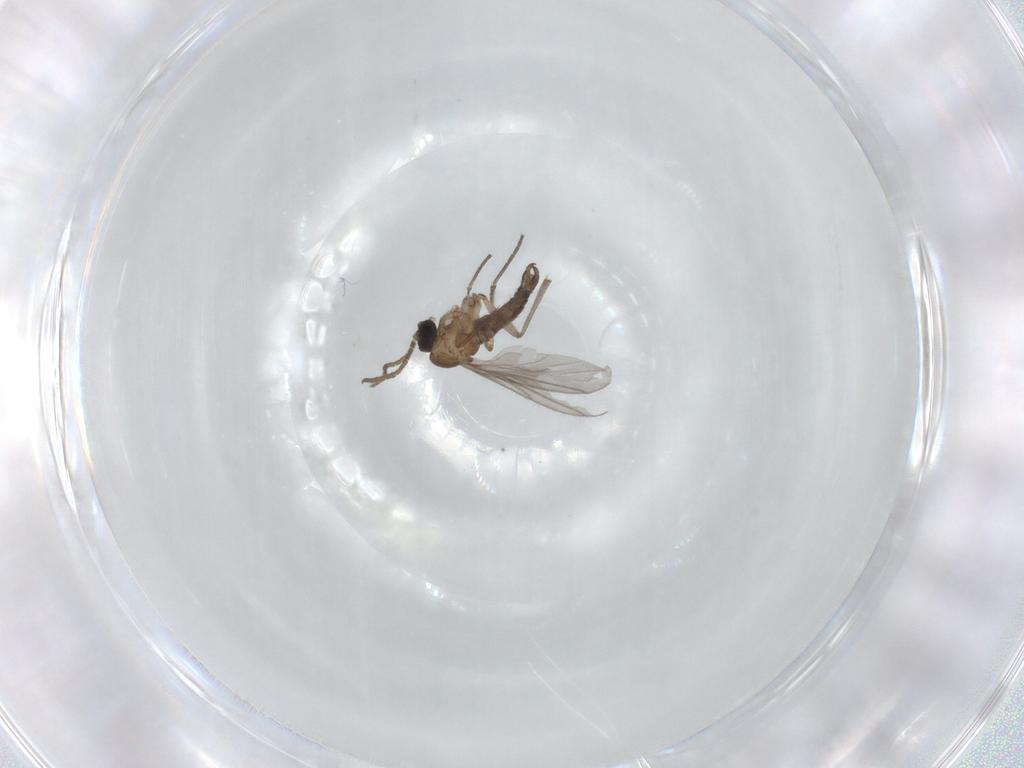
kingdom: Animalia
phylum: Arthropoda
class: Insecta
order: Diptera
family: Sciaridae
